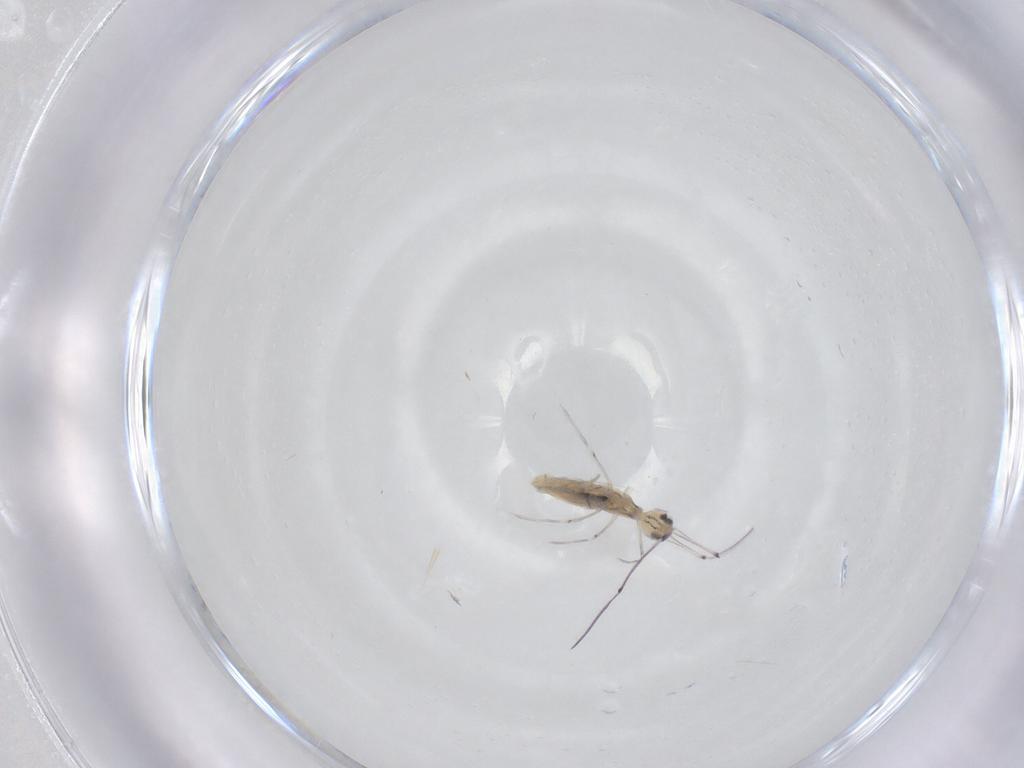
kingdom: Animalia
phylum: Arthropoda
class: Collembola
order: Entomobryomorpha
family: Paronellidae
